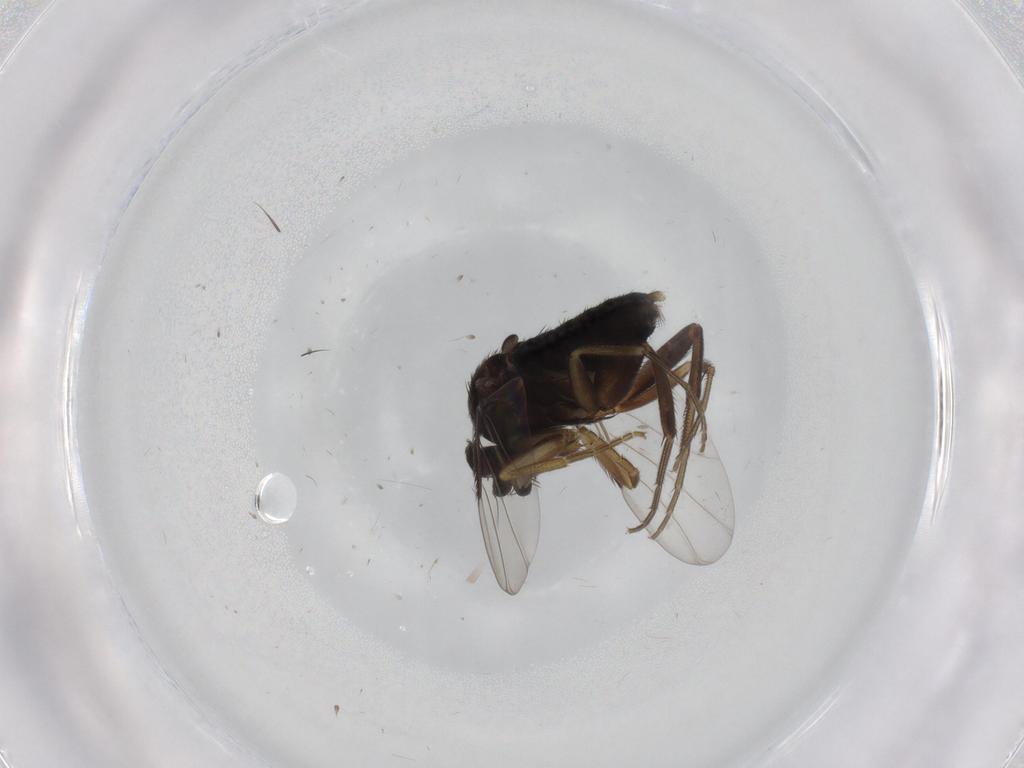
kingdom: Animalia
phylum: Arthropoda
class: Insecta
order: Diptera
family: Phoridae
